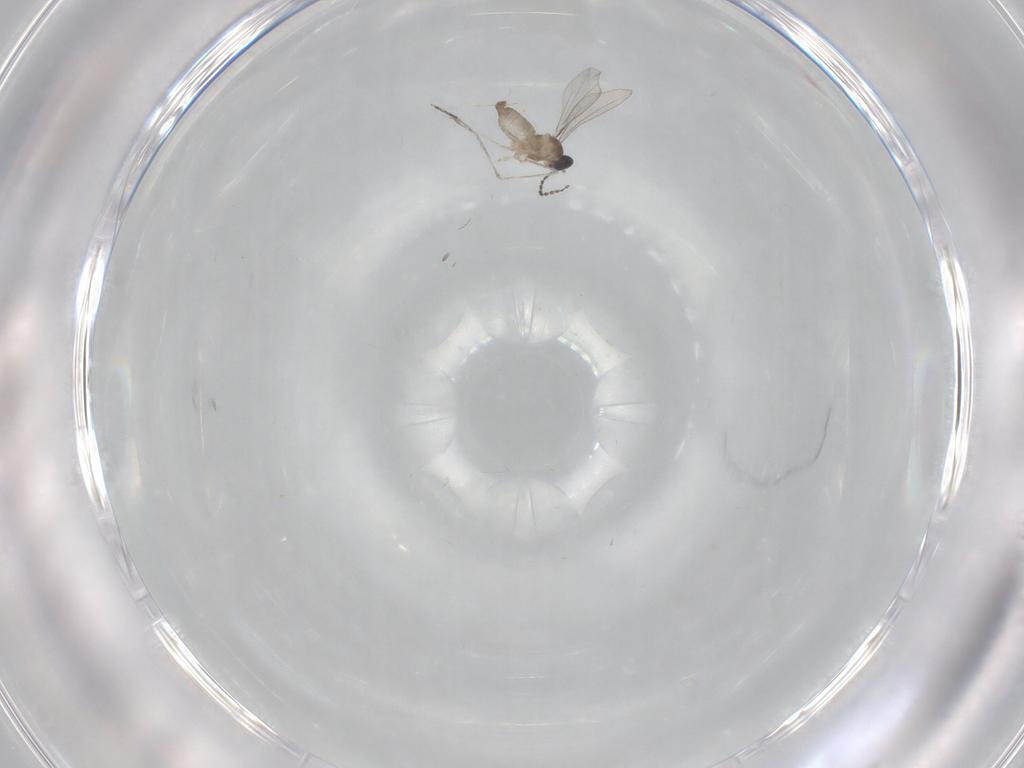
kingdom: Animalia
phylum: Arthropoda
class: Insecta
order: Diptera
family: Cecidomyiidae
